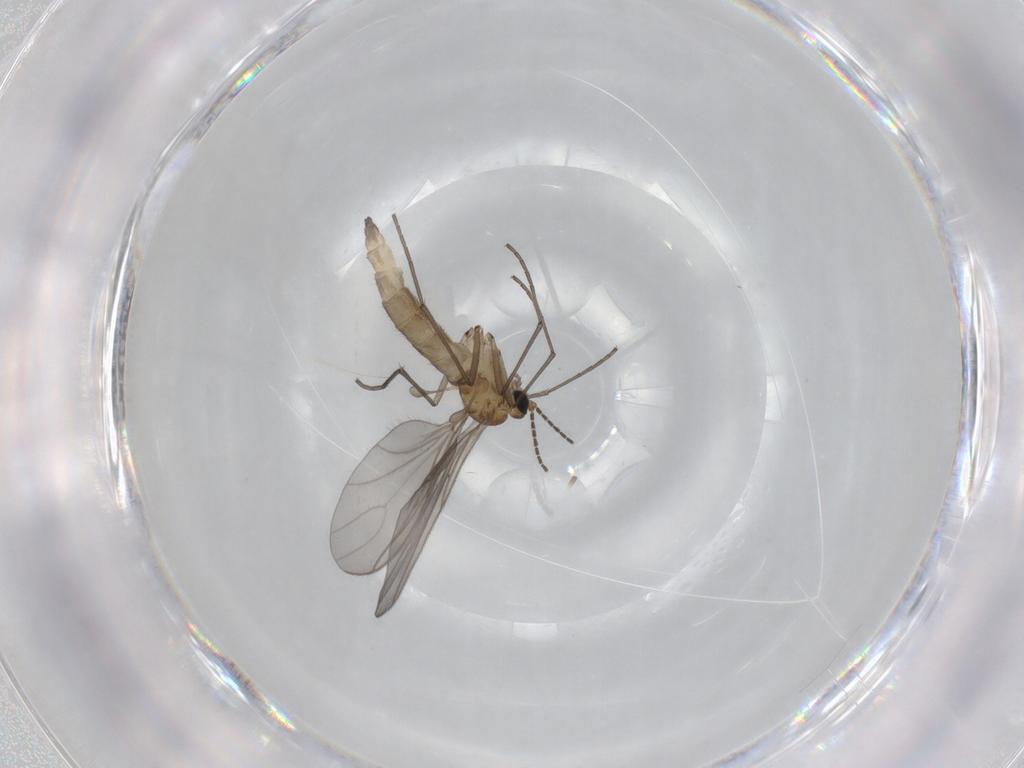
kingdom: Animalia
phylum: Arthropoda
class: Insecta
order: Diptera
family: Sciaridae
